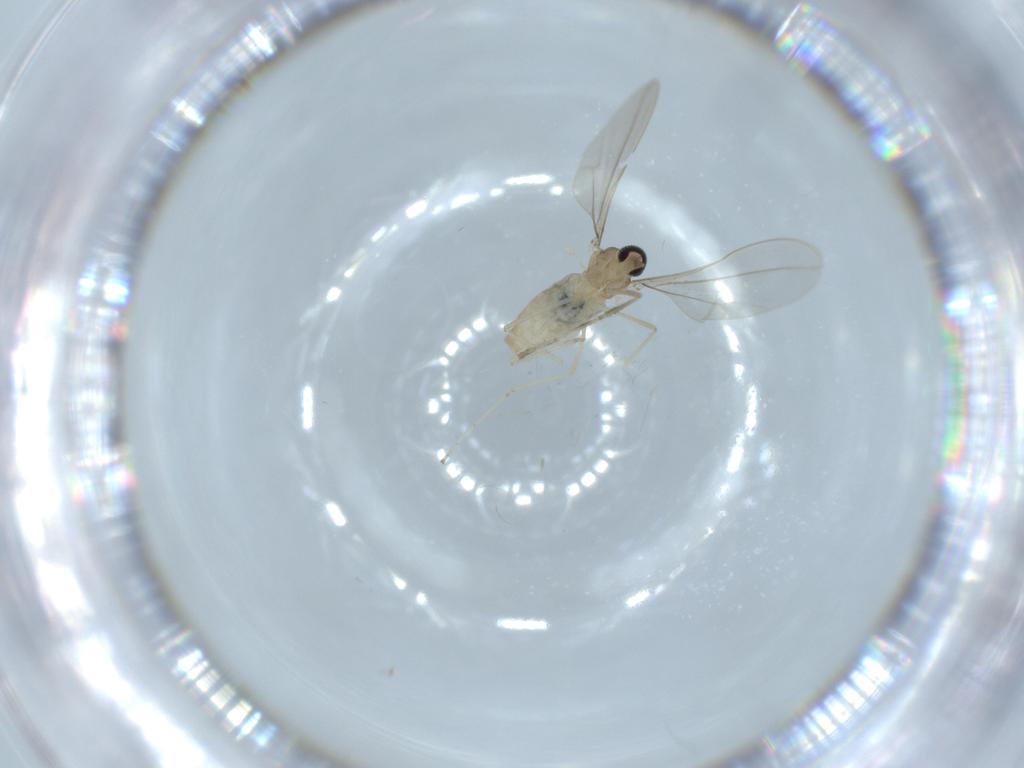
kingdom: Animalia
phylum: Arthropoda
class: Insecta
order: Diptera
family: Cecidomyiidae
